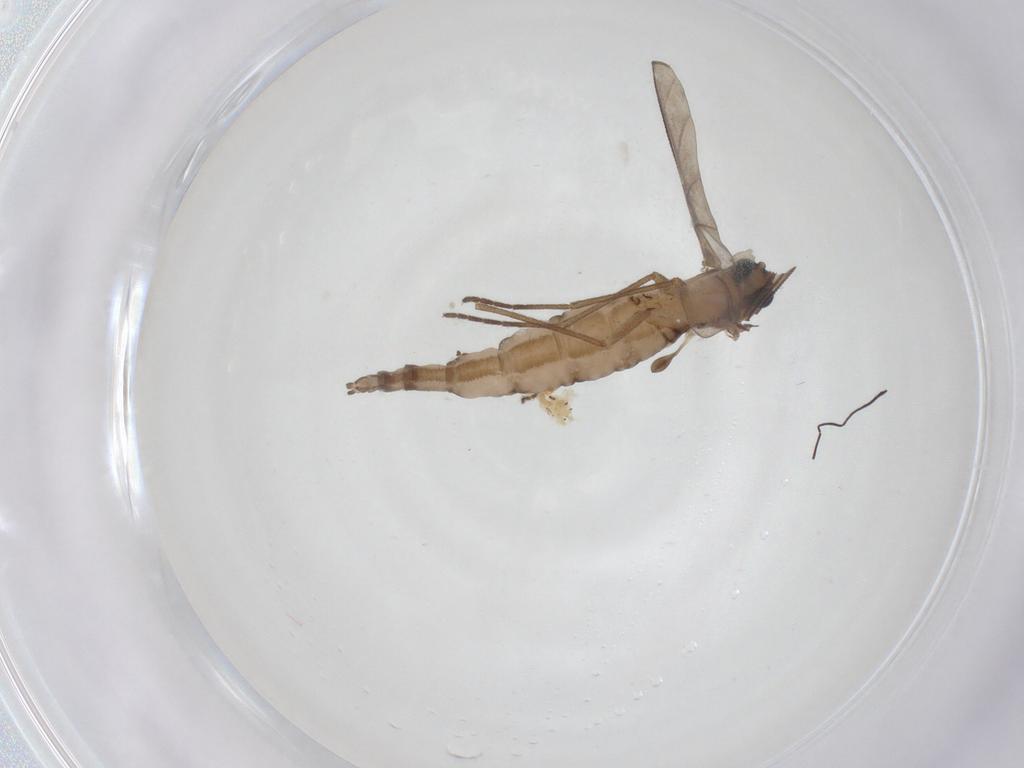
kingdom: Animalia
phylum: Arthropoda
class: Insecta
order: Diptera
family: Sciaridae
